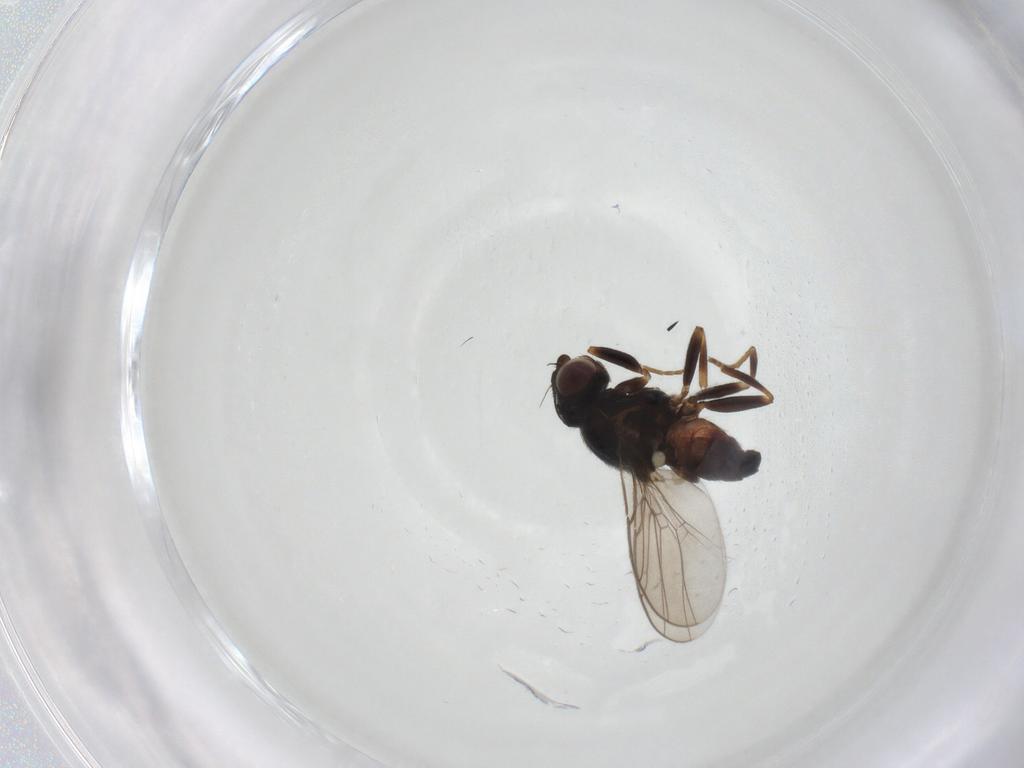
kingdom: Animalia
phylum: Arthropoda
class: Insecta
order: Diptera
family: Chloropidae
